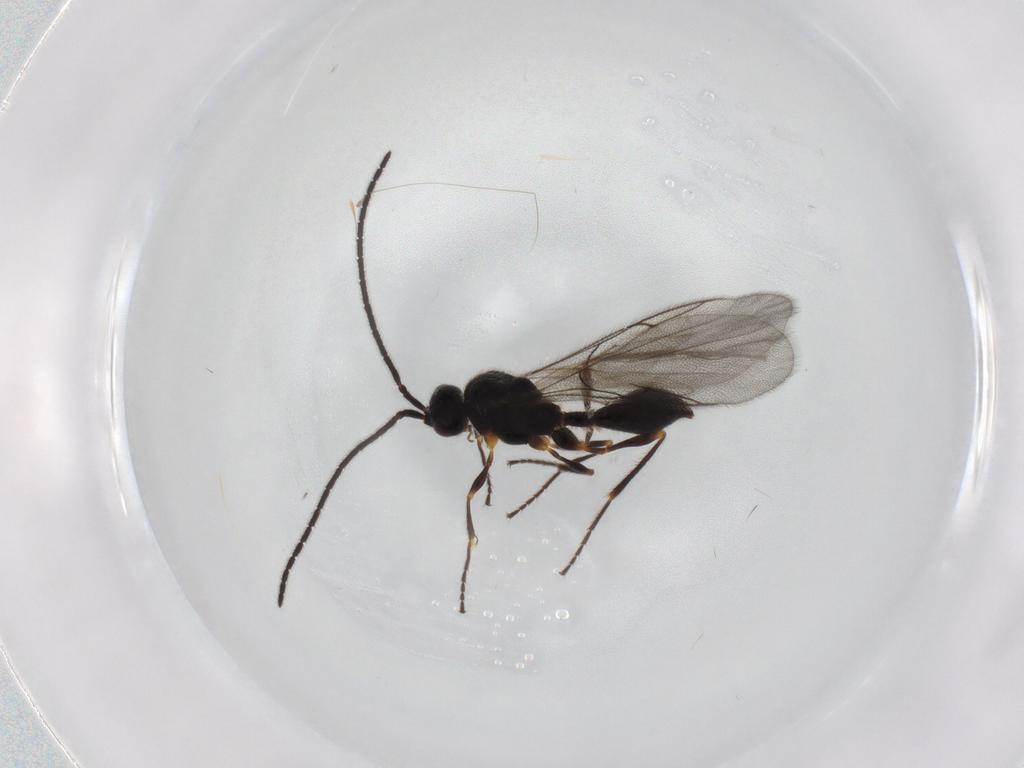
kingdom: Animalia
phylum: Arthropoda
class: Insecta
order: Hymenoptera
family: Diapriidae
